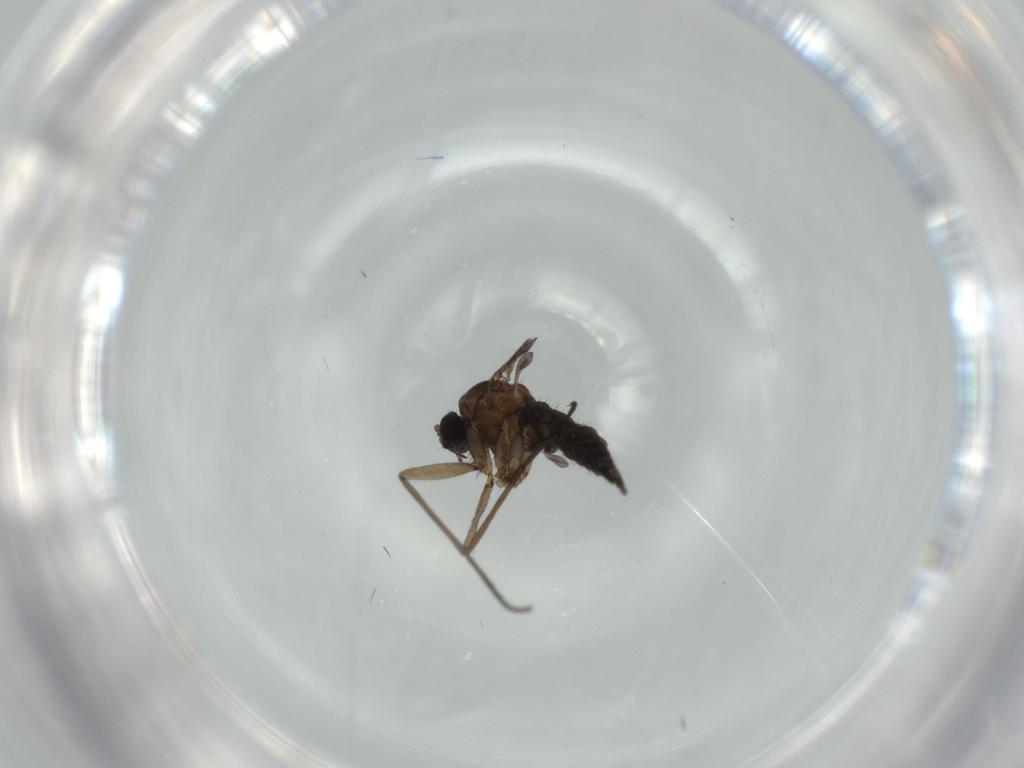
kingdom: Animalia
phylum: Arthropoda
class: Insecta
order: Diptera
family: Sciaridae
